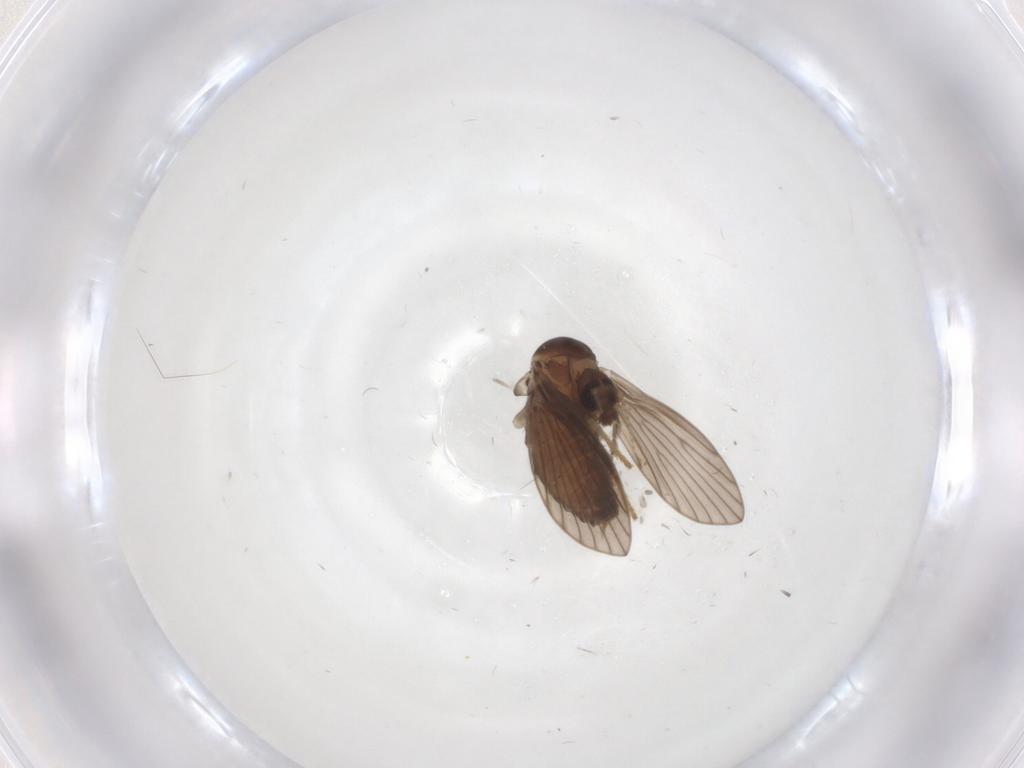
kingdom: Animalia
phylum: Arthropoda
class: Insecta
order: Diptera
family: Psychodidae
